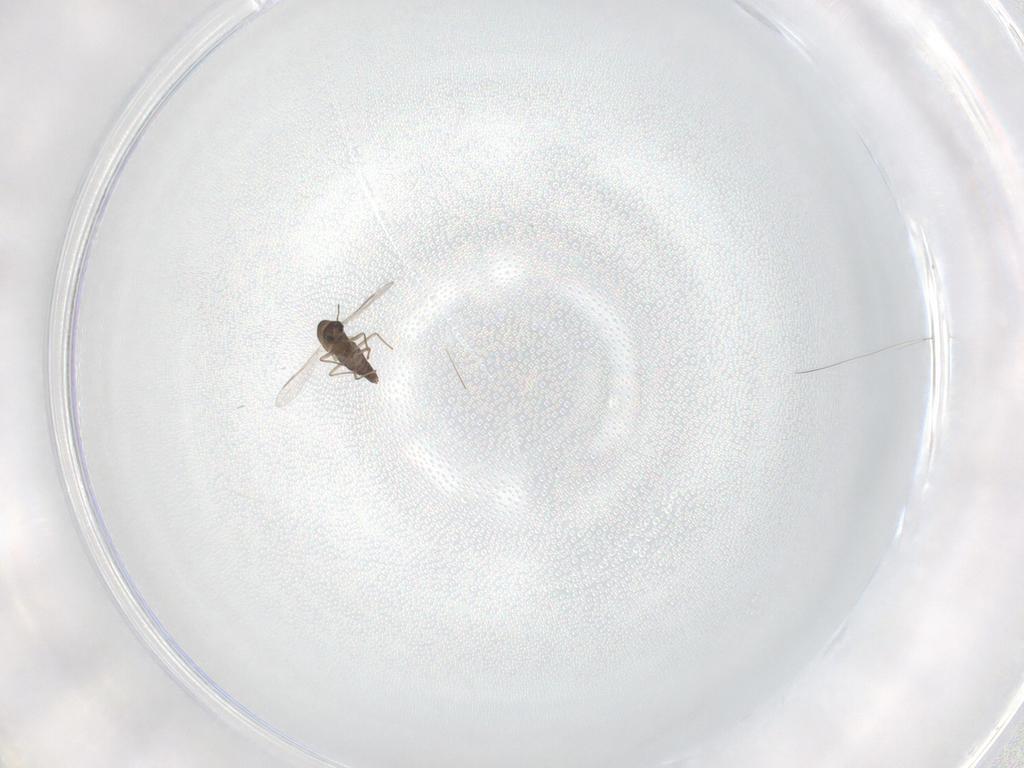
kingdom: Animalia
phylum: Arthropoda
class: Insecta
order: Diptera
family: Chironomidae
